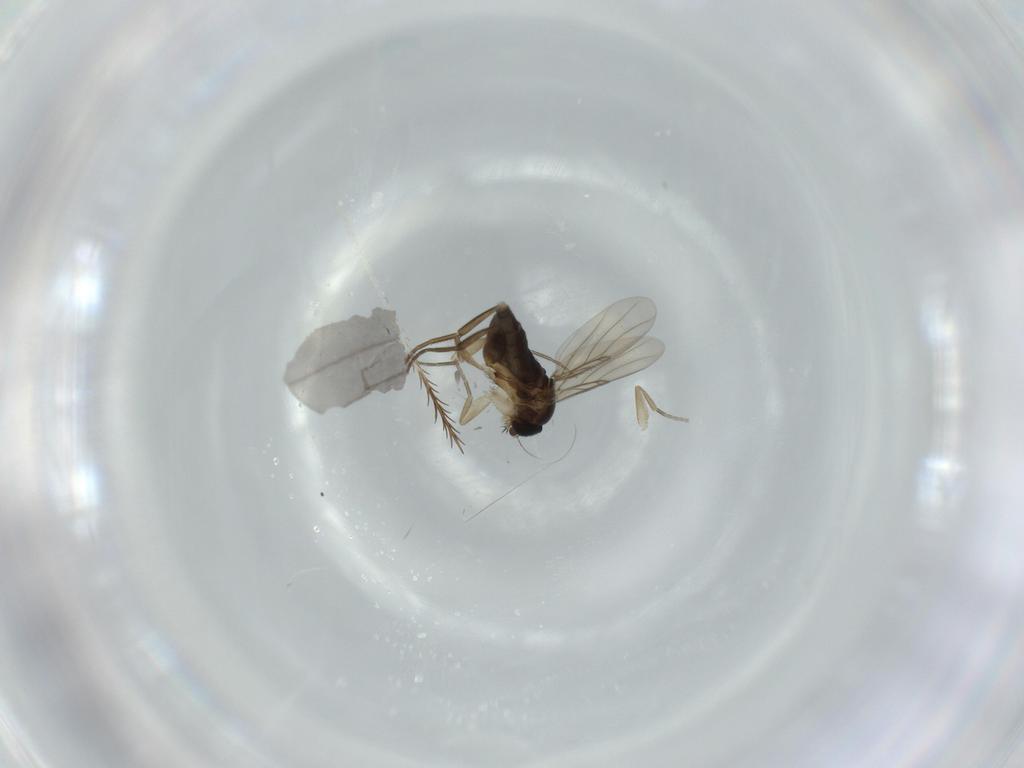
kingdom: Animalia
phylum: Arthropoda
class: Insecta
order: Diptera
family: Phoridae
